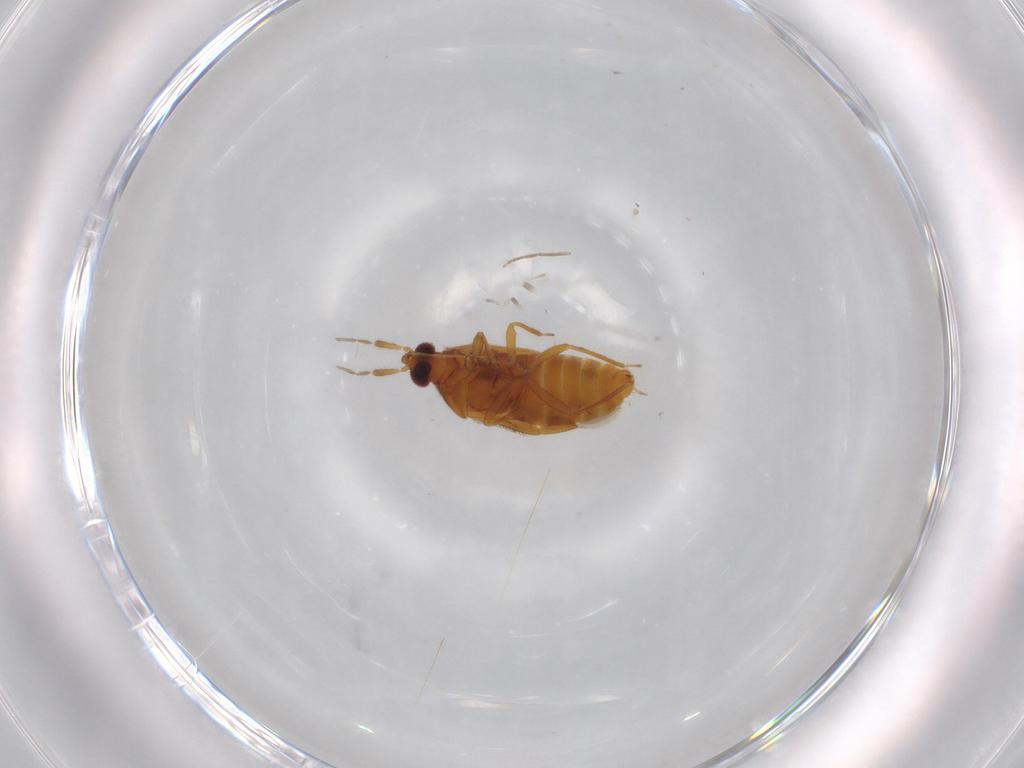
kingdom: Animalia
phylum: Arthropoda
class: Insecta
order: Hemiptera
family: Anthocoridae
